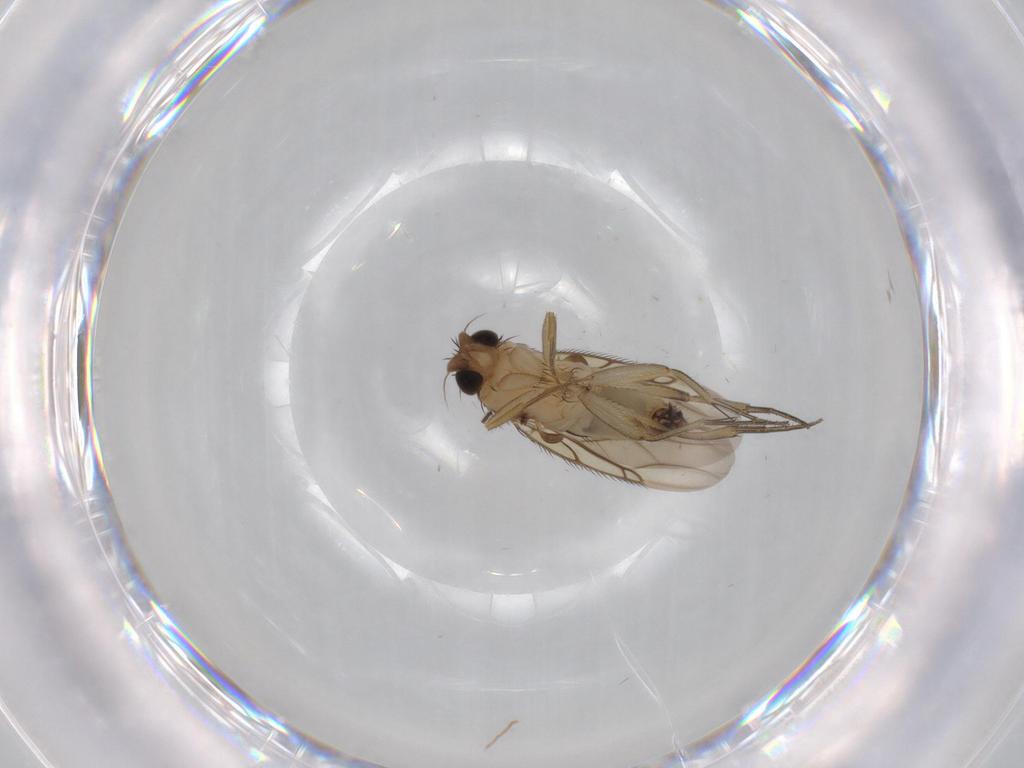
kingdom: Animalia
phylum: Arthropoda
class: Insecta
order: Diptera
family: Phoridae
